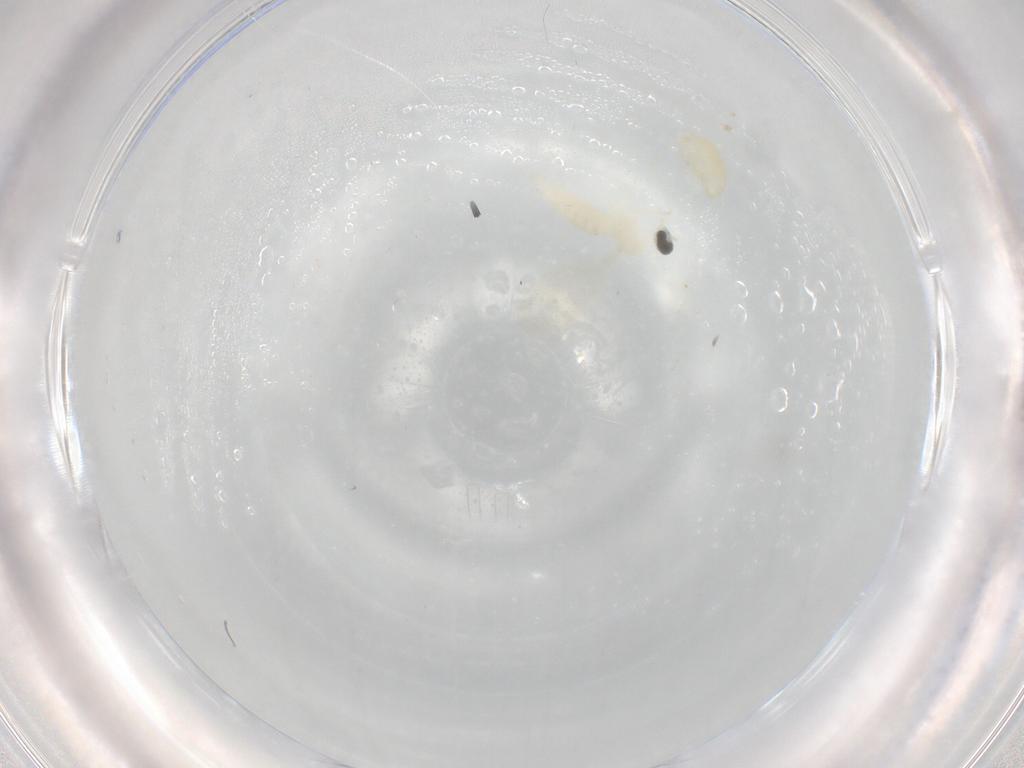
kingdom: Animalia
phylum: Arthropoda
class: Insecta
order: Diptera
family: Cecidomyiidae
